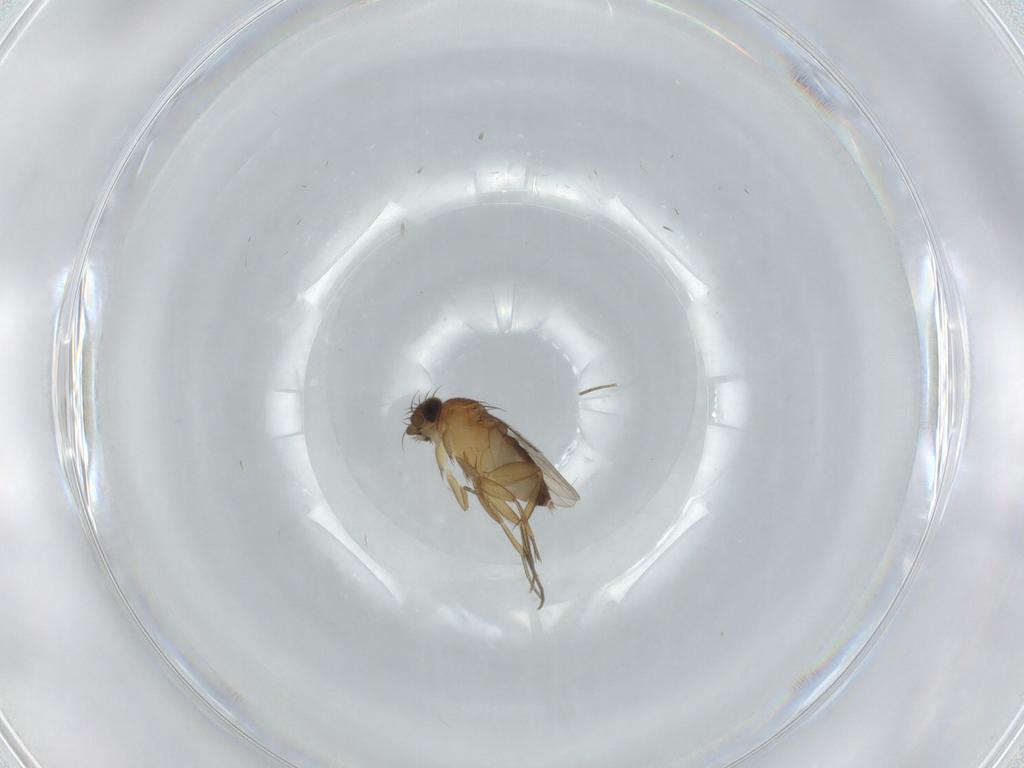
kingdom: Animalia
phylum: Arthropoda
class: Insecta
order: Diptera
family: Phoridae
